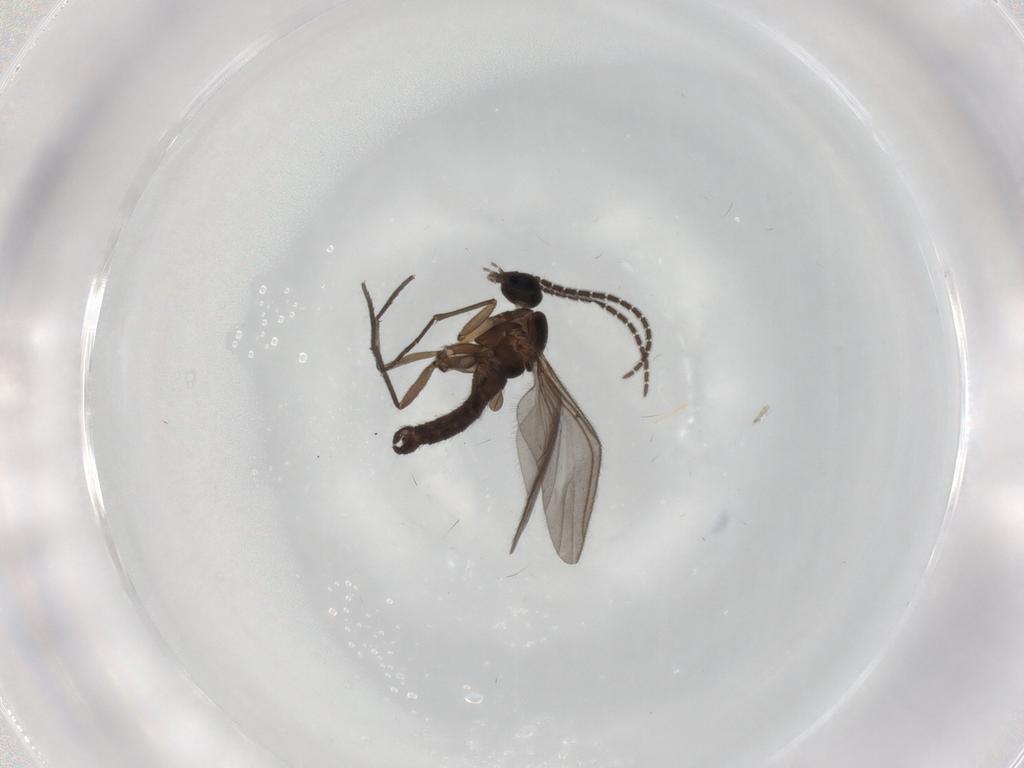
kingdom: Animalia
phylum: Arthropoda
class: Insecta
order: Diptera
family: Sciaridae
